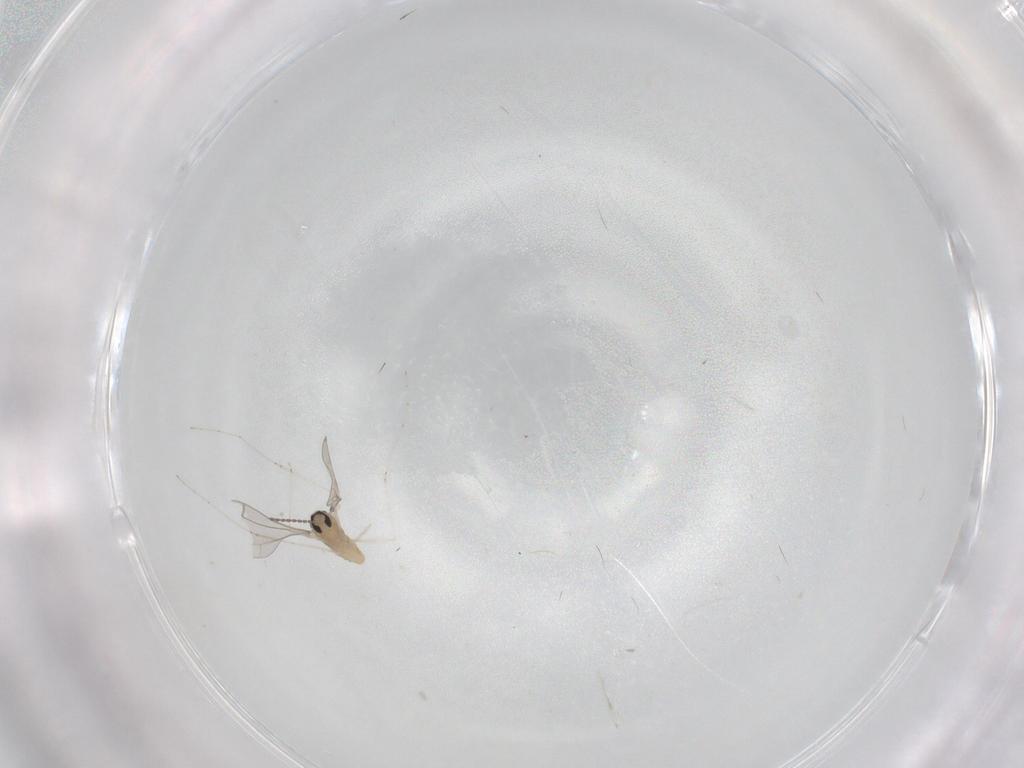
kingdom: Animalia
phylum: Arthropoda
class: Insecta
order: Diptera
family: Cecidomyiidae
